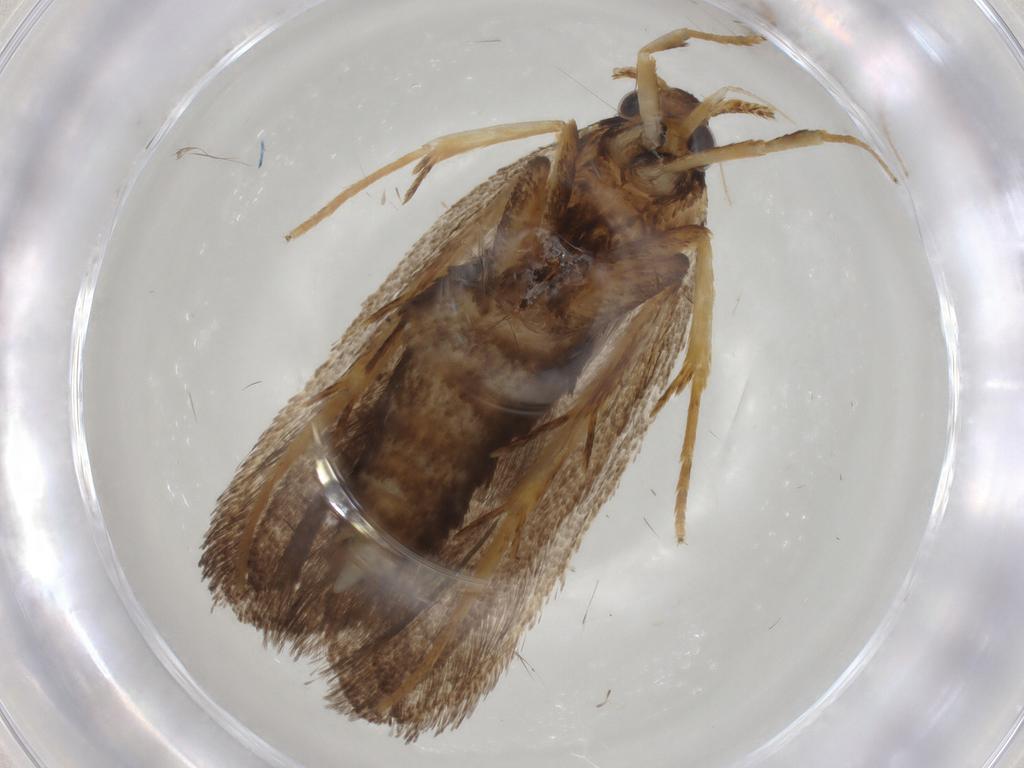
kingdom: Animalia
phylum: Arthropoda
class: Insecta
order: Lepidoptera
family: Lecithoceridae
